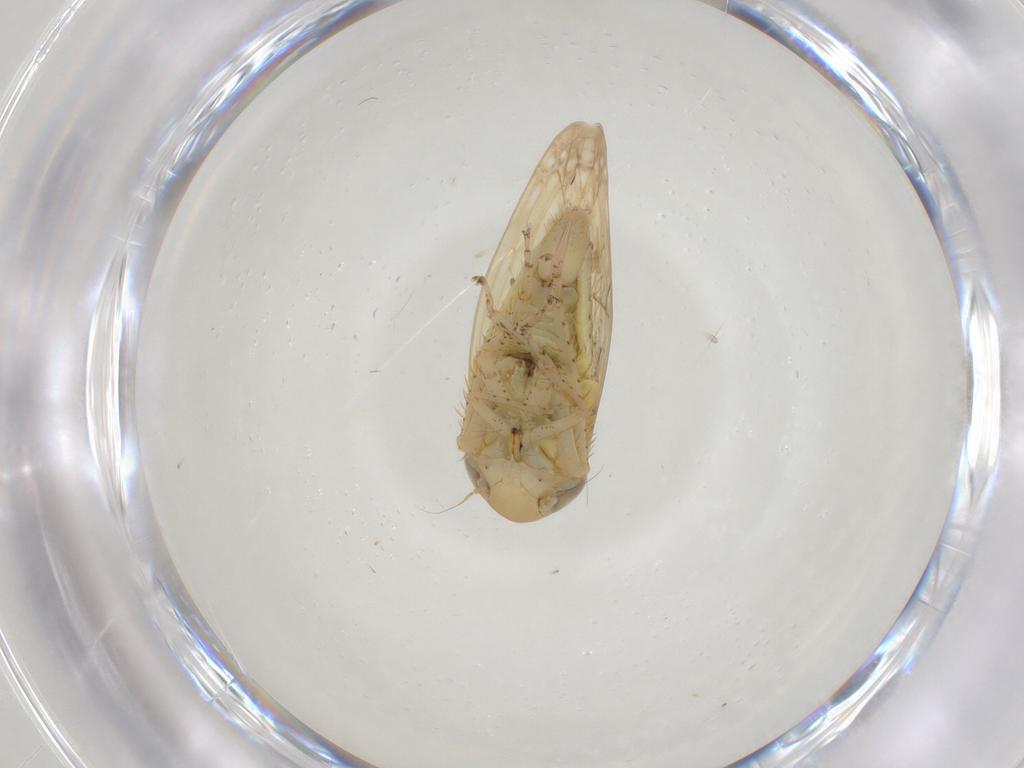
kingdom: Animalia
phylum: Arthropoda
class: Insecta
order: Hemiptera
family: Cicadellidae
